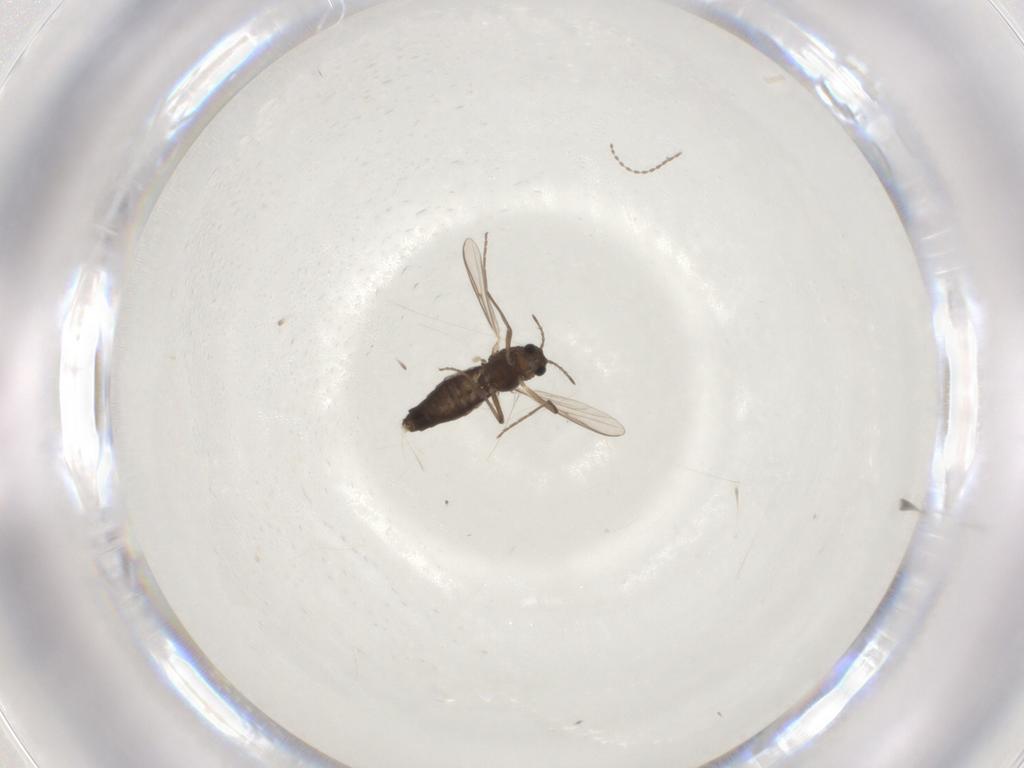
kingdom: Animalia
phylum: Arthropoda
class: Insecta
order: Diptera
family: Chironomidae
